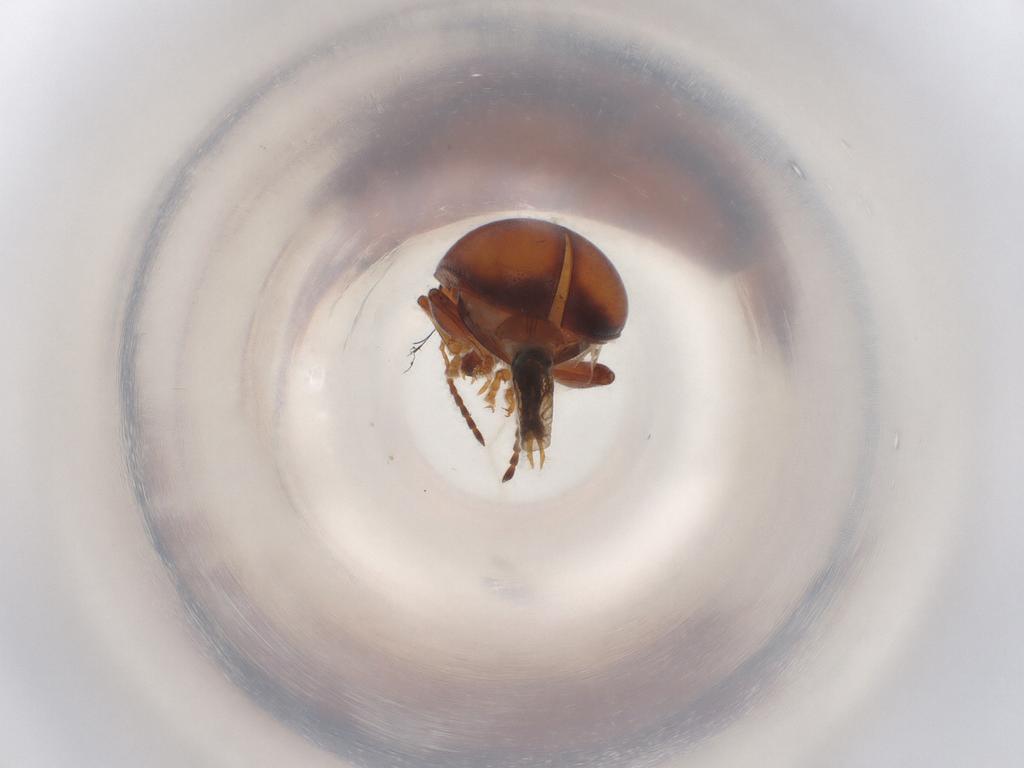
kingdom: Animalia
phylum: Arthropoda
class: Insecta
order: Coleoptera
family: Chrysomelidae
